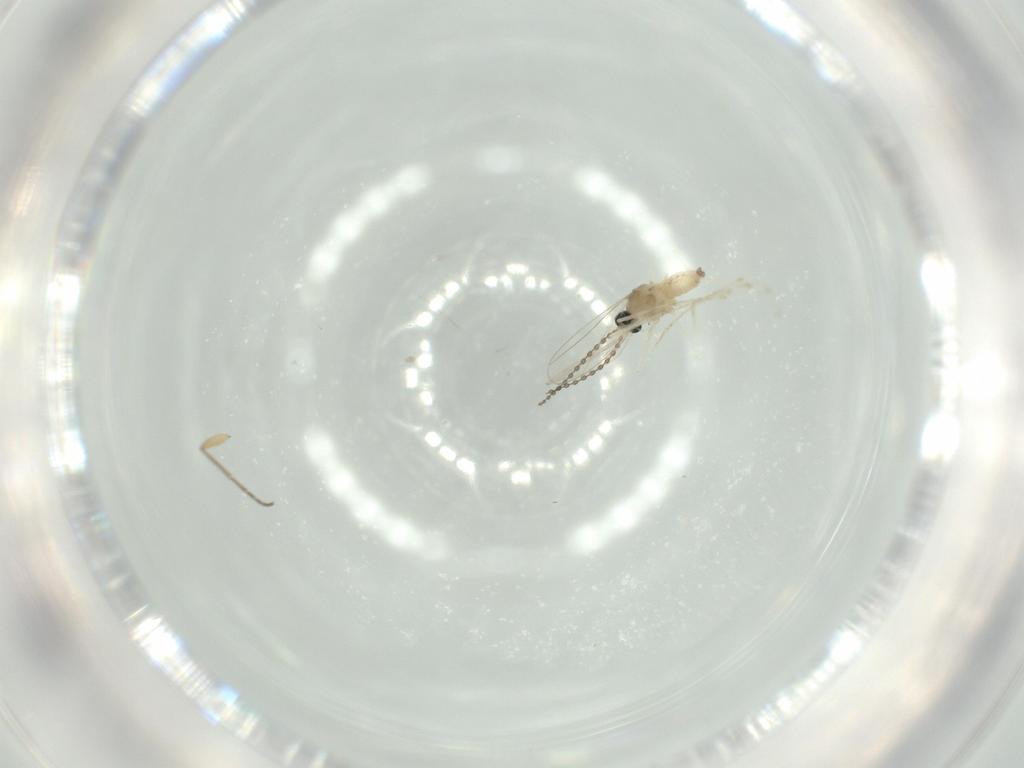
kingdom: Animalia
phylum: Arthropoda
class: Insecta
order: Diptera
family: Cecidomyiidae
